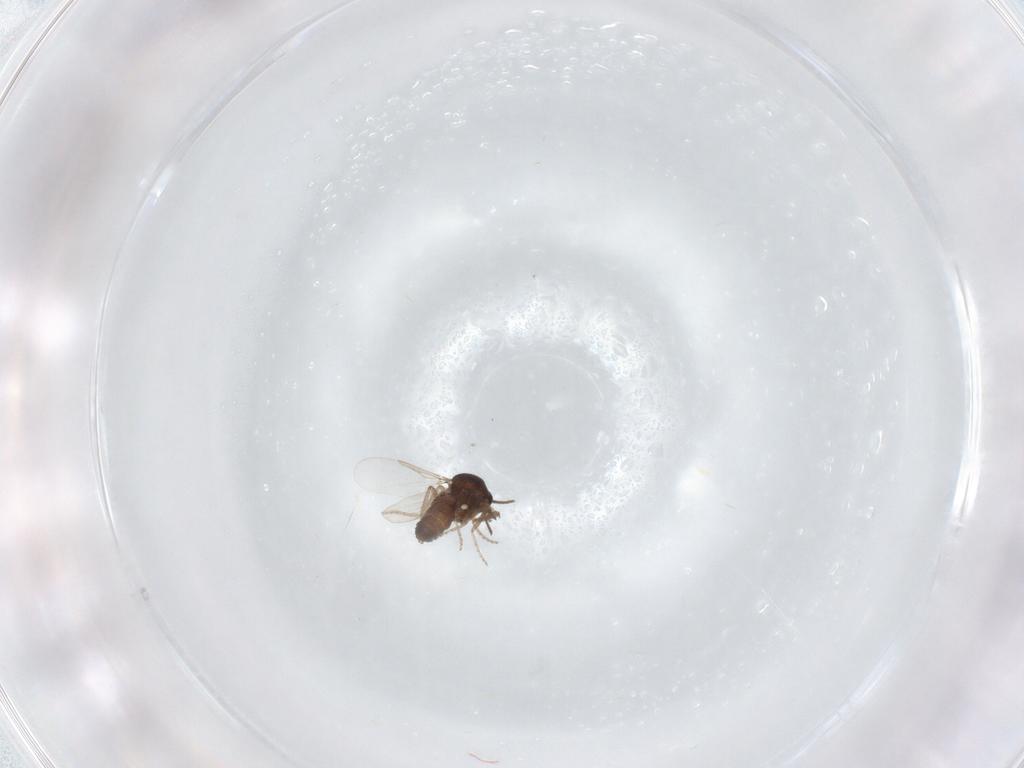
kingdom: Animalia
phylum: Arthropoda
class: Insecta
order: Diptera
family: Ceratopogonidae
